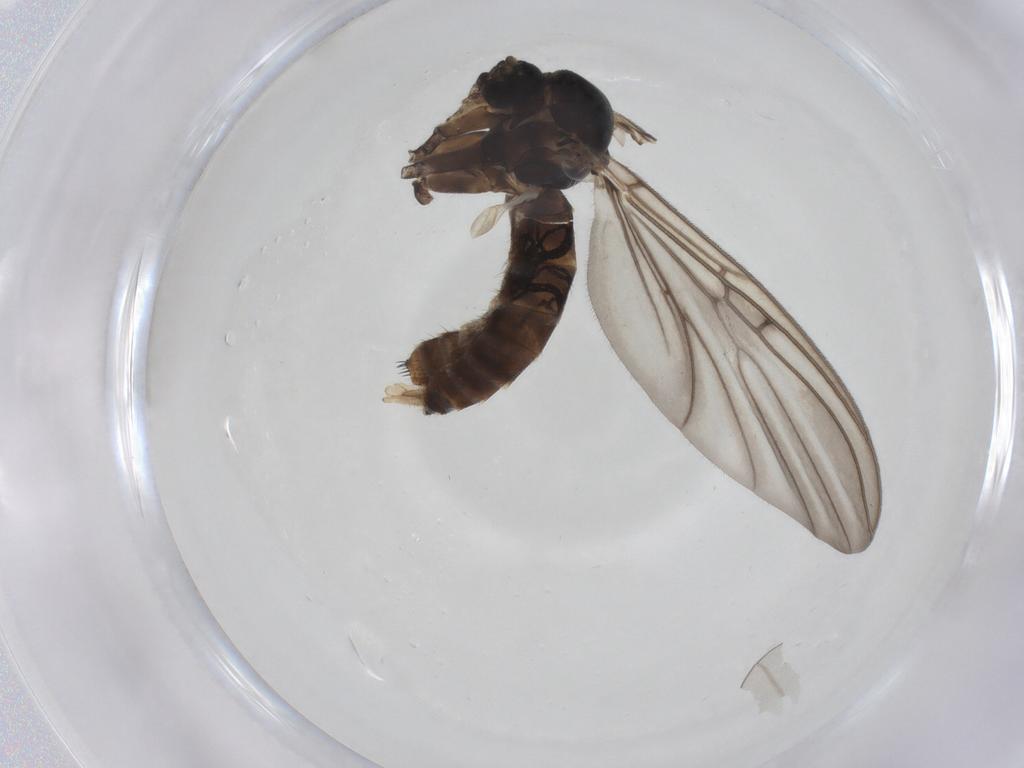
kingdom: Animalia
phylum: Arthropoda
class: Insecta
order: Diptera
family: Mycetophilidae
